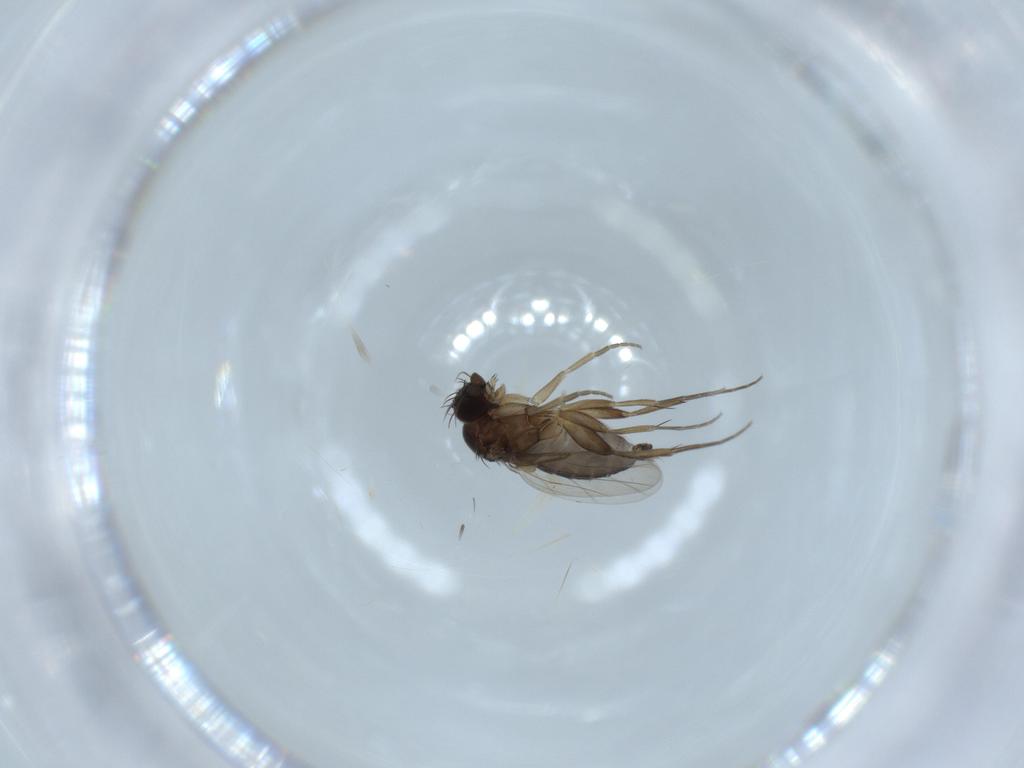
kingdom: Animalia
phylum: Arthropoda
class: Insecta
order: Diptera
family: Phoridae
